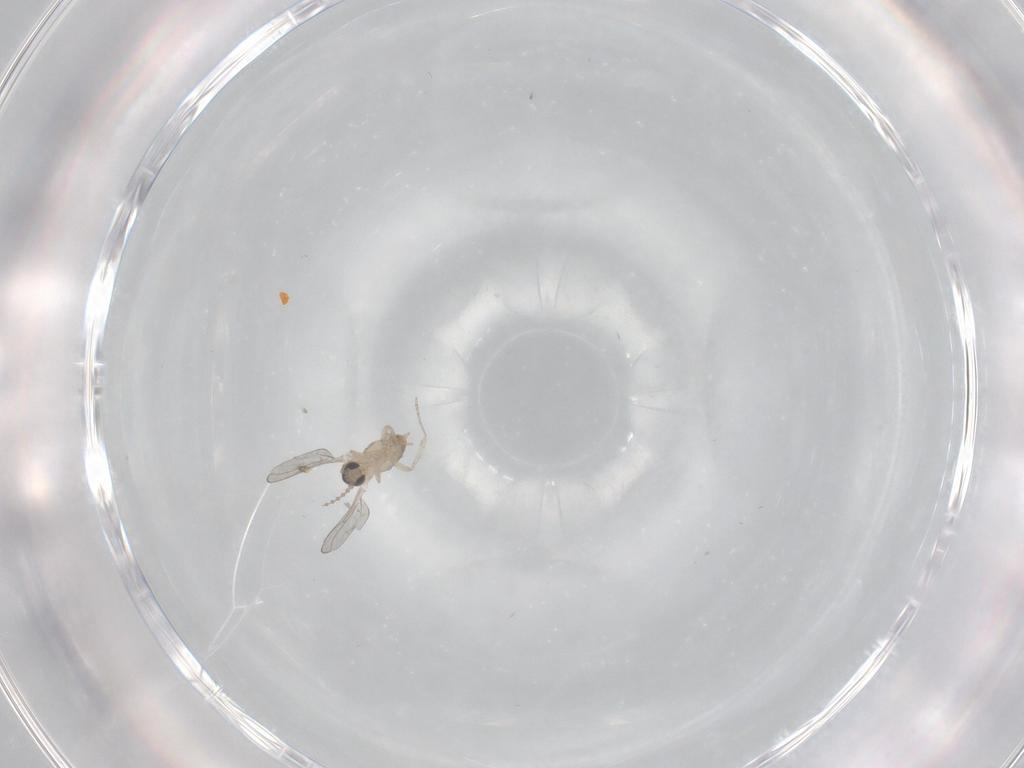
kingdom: Animalia
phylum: Arthropoda
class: Insecta
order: Diptera
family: Cecidomyiidae
